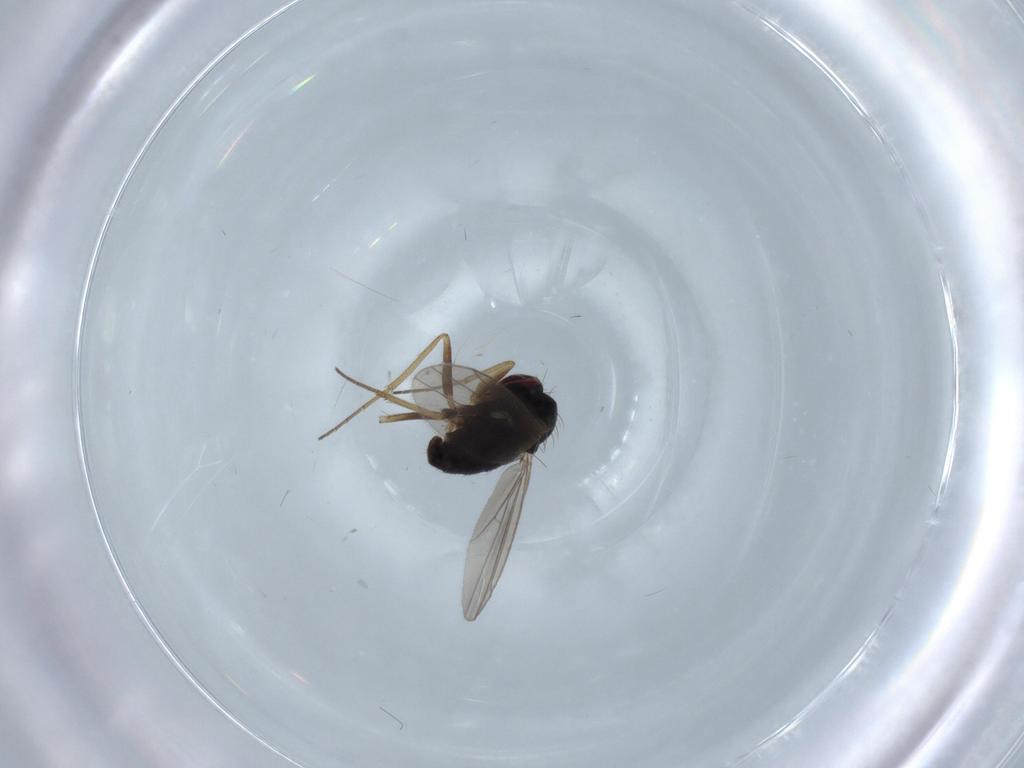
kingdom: Animalia
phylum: Arthropoda
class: Insecta
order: Diptera
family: Dolichopodidae
